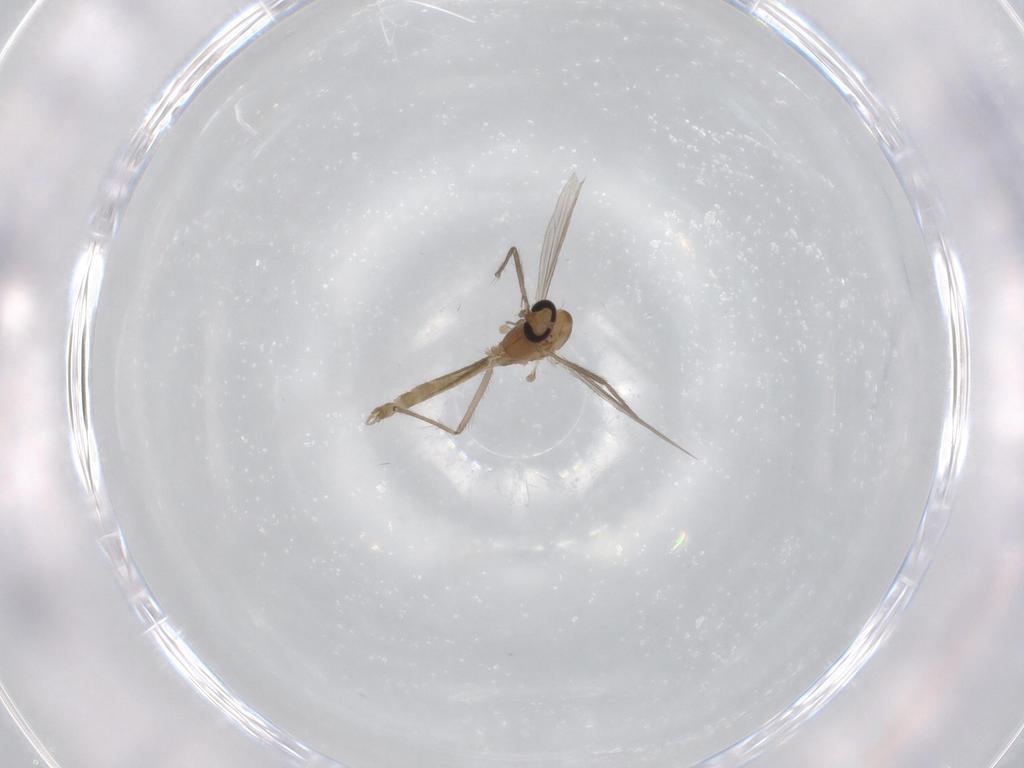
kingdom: Animalia
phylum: Arthropoda
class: Insecta
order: Diptera
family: Chironomidae
